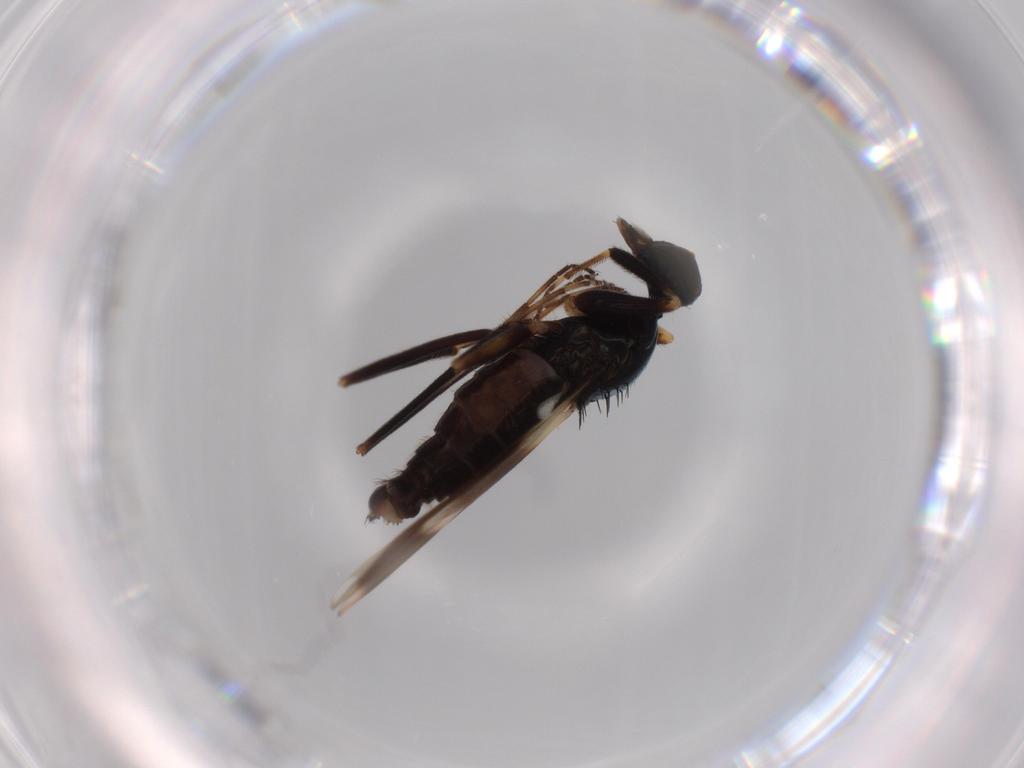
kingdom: Animalia
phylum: Arthropoda
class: Insecta
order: Diptera
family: Hybotidae
